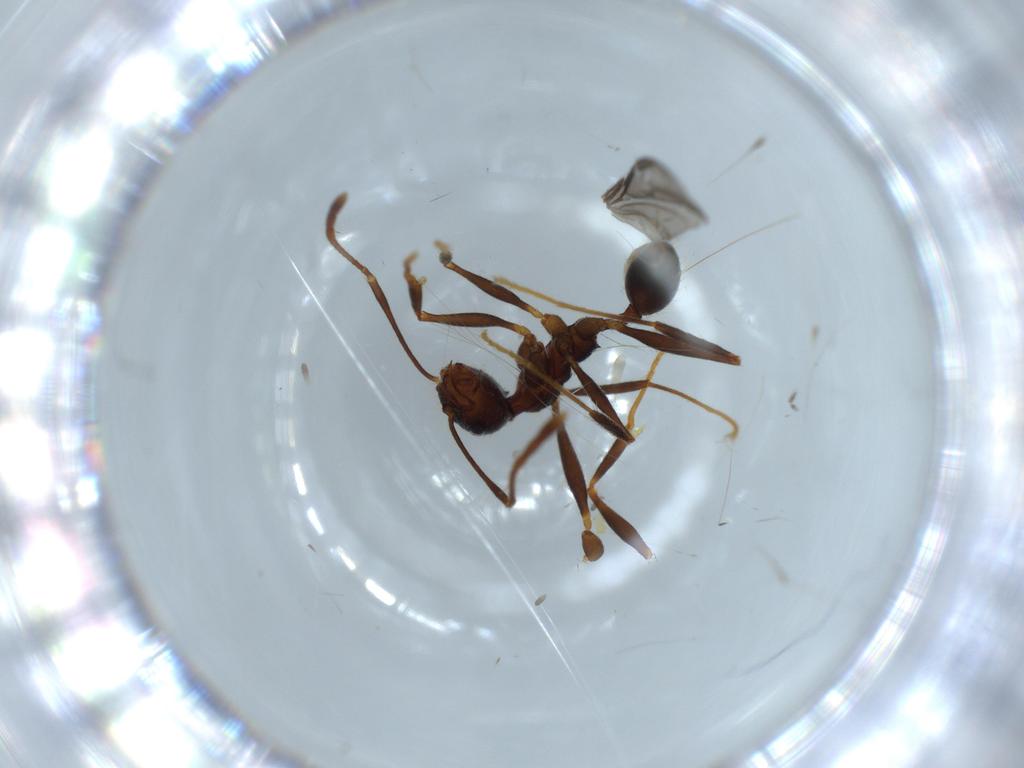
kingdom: Animalia
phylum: Arthropoda
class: Insecta
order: Hymenoptera
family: Formicidae
